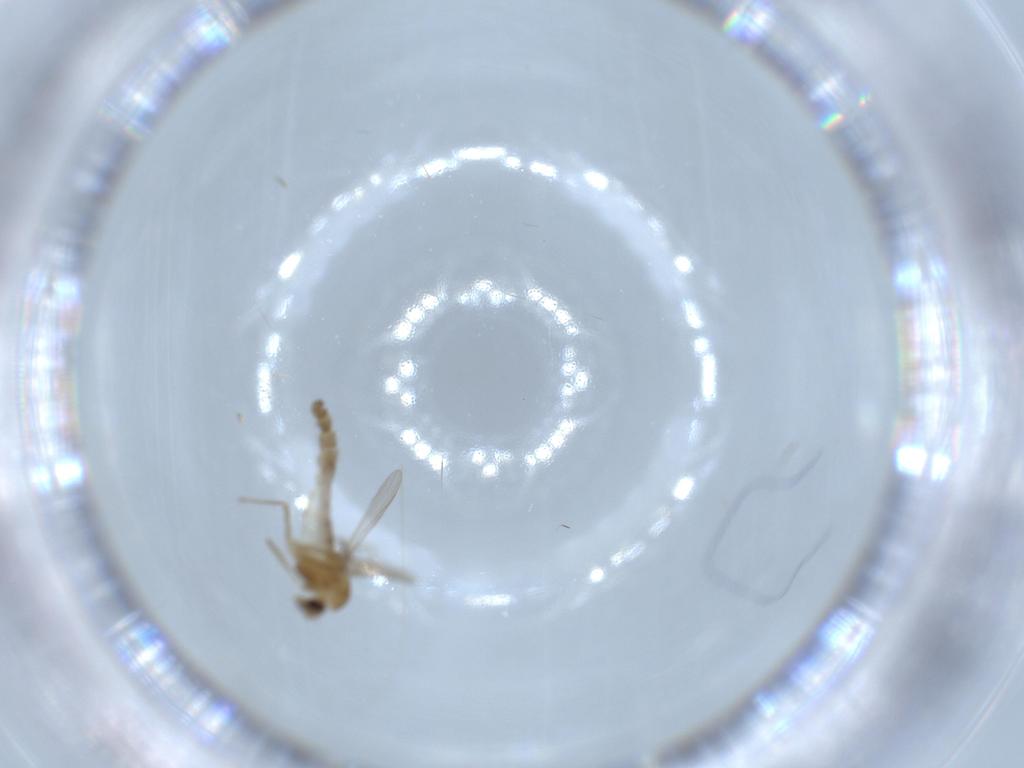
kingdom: Animalia
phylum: Arthropoda
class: Insecta
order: Diptera
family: Chironomidae
